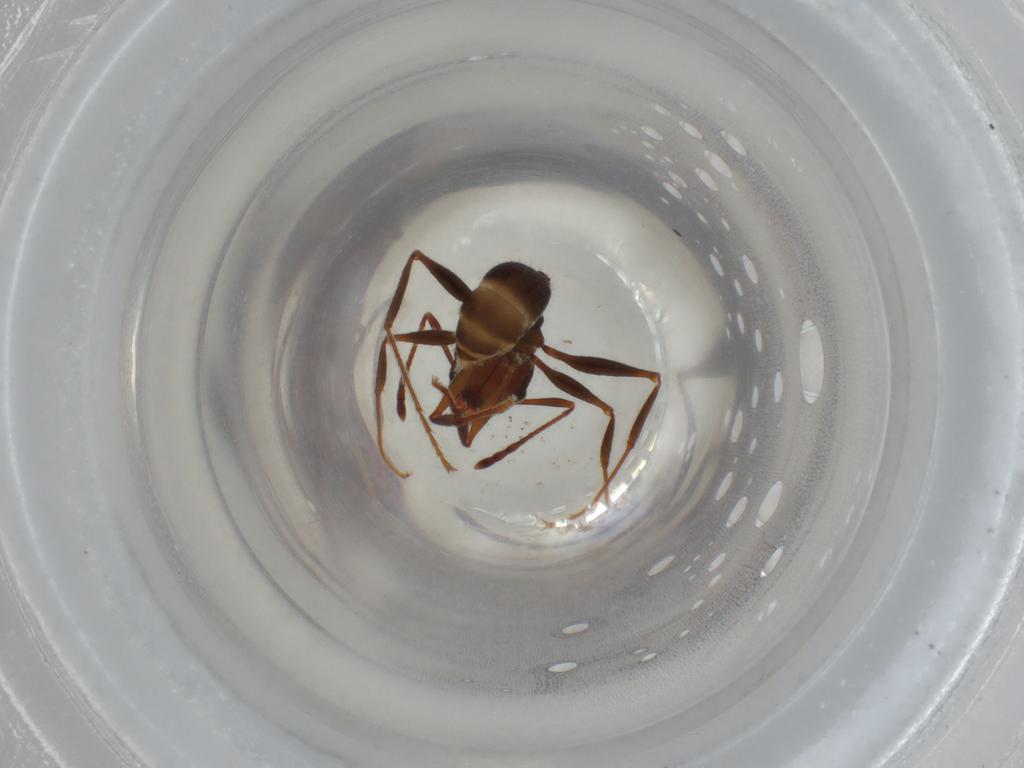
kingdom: Animalia
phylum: Arthropoda
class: Insecta
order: Hymenoptera
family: Formicidae
